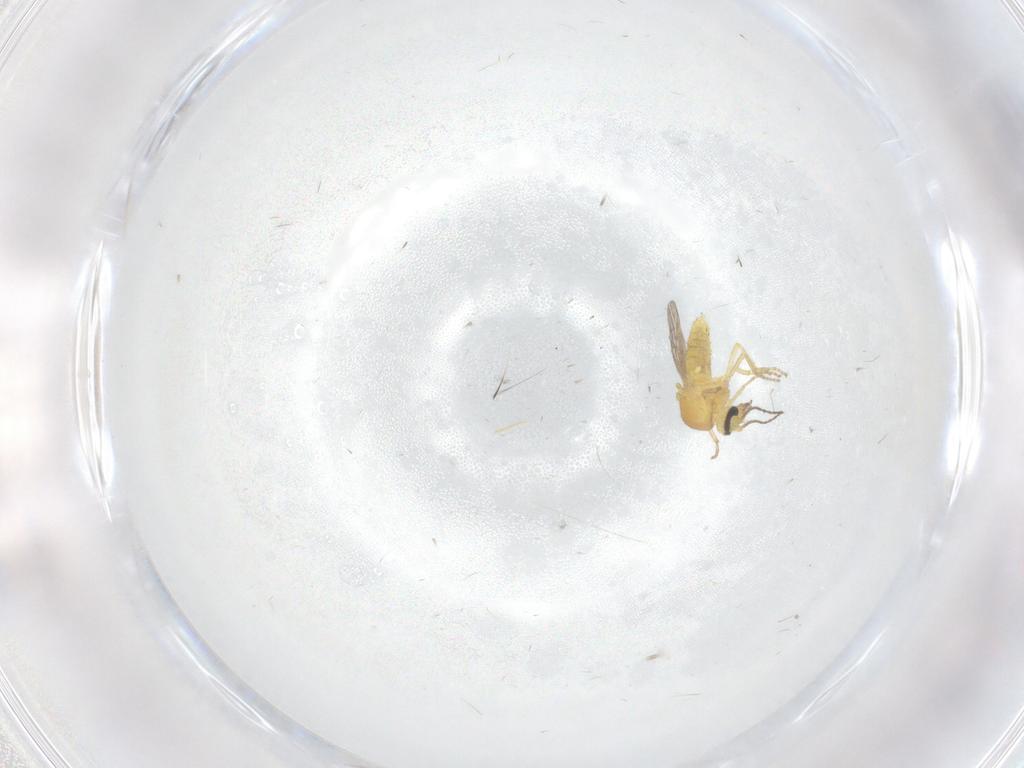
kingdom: Animalia
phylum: Arthropoda
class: Insecta
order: Diptera
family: Ceratopogonidae
